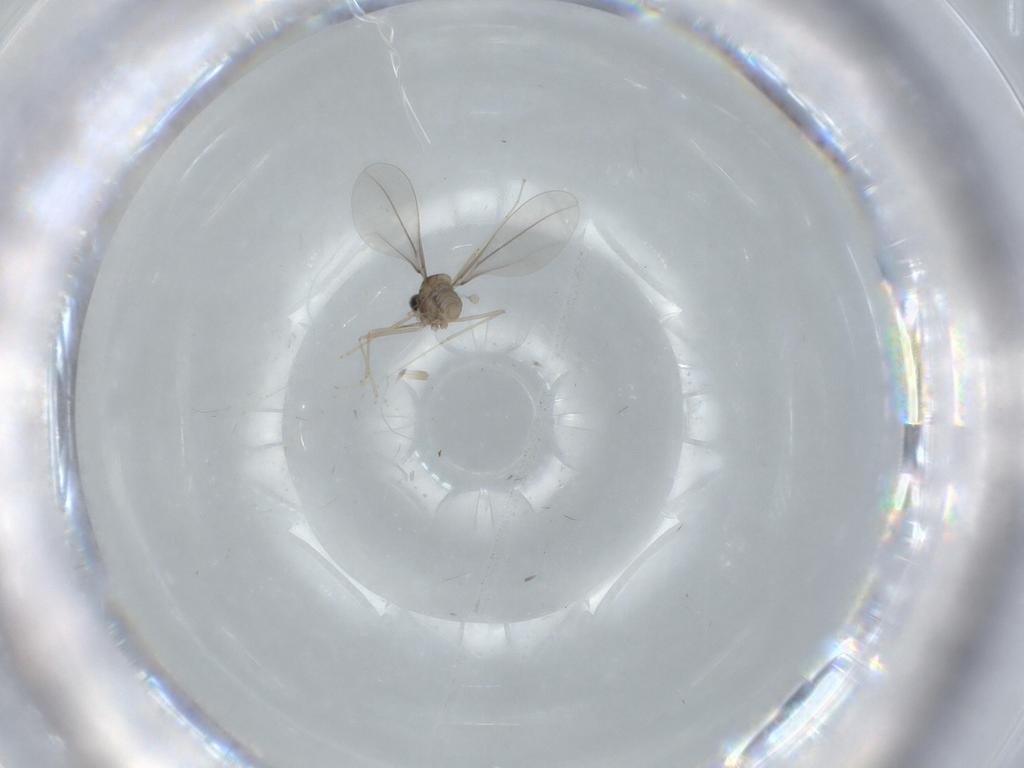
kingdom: Animalia
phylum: Arthropoda
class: Insecta
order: Diptera
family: Cecidomyiidae
